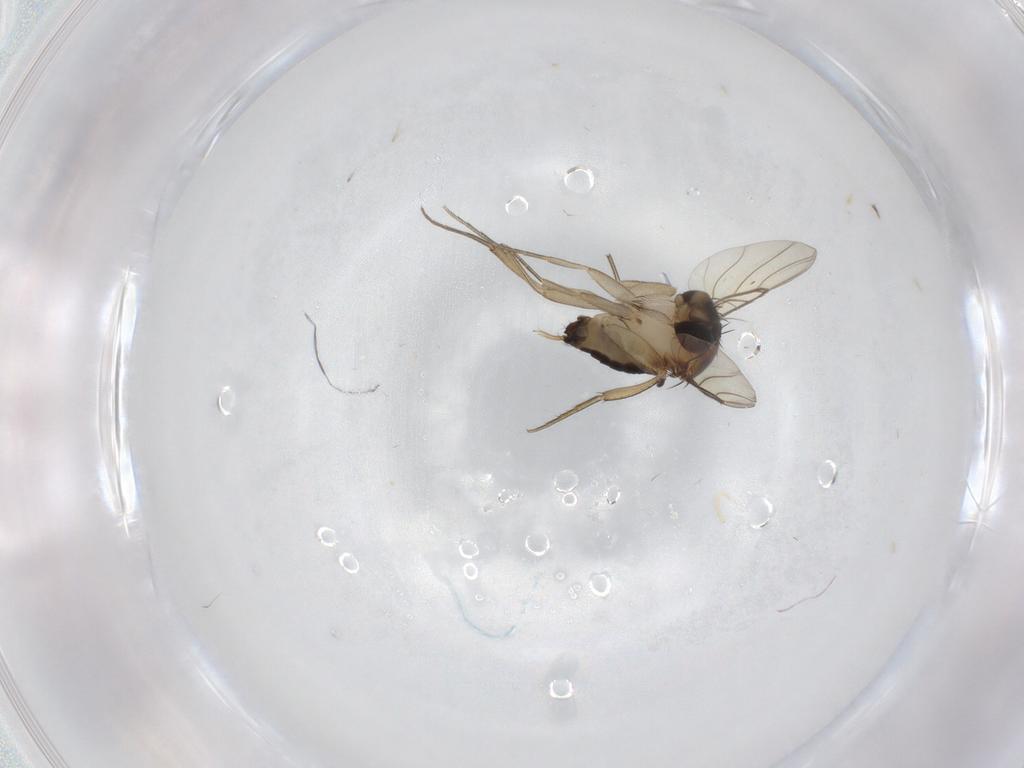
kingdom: Animalia
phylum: Arthropoda
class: Insecta
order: Diptera
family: Phoridae
